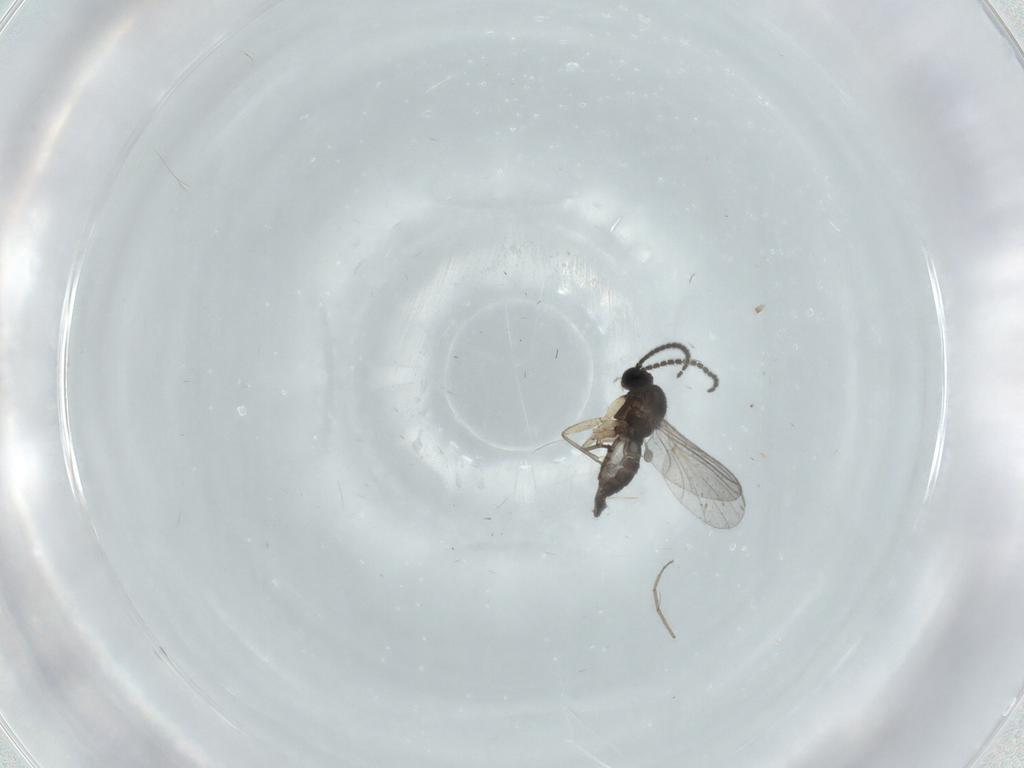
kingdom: Animalia
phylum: Arthropoda
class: Insecta
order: Diptera
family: Sciaridae
